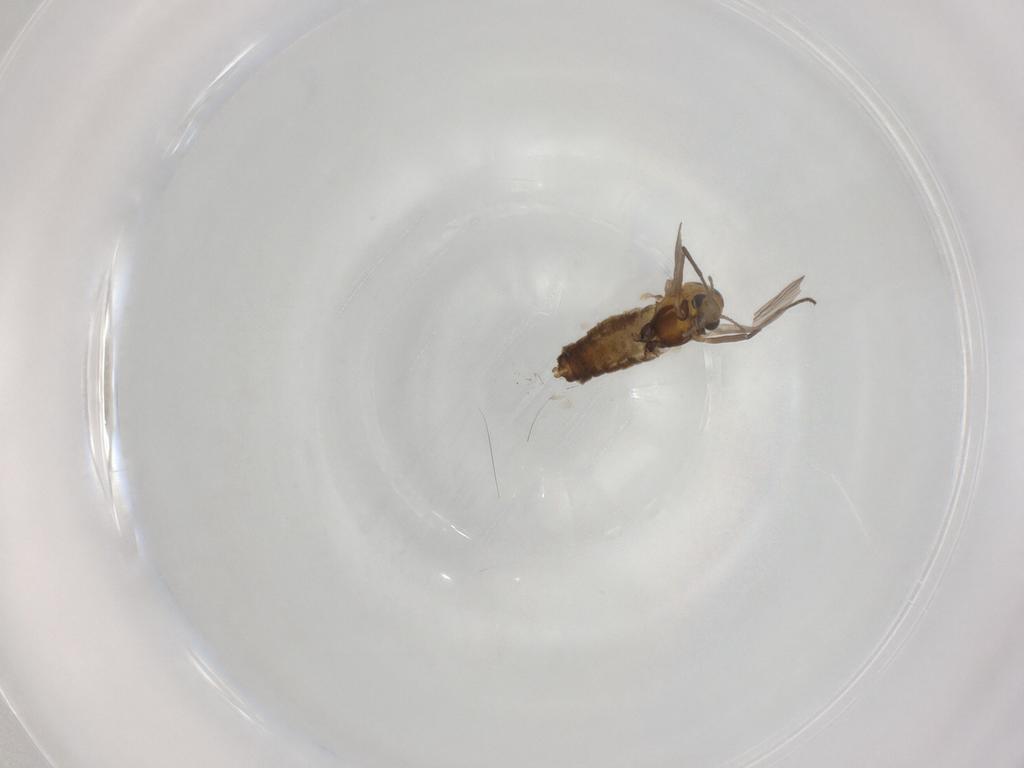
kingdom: Animalia
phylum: Arthropoda
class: Insecta
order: Diptera
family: Chironomidae
